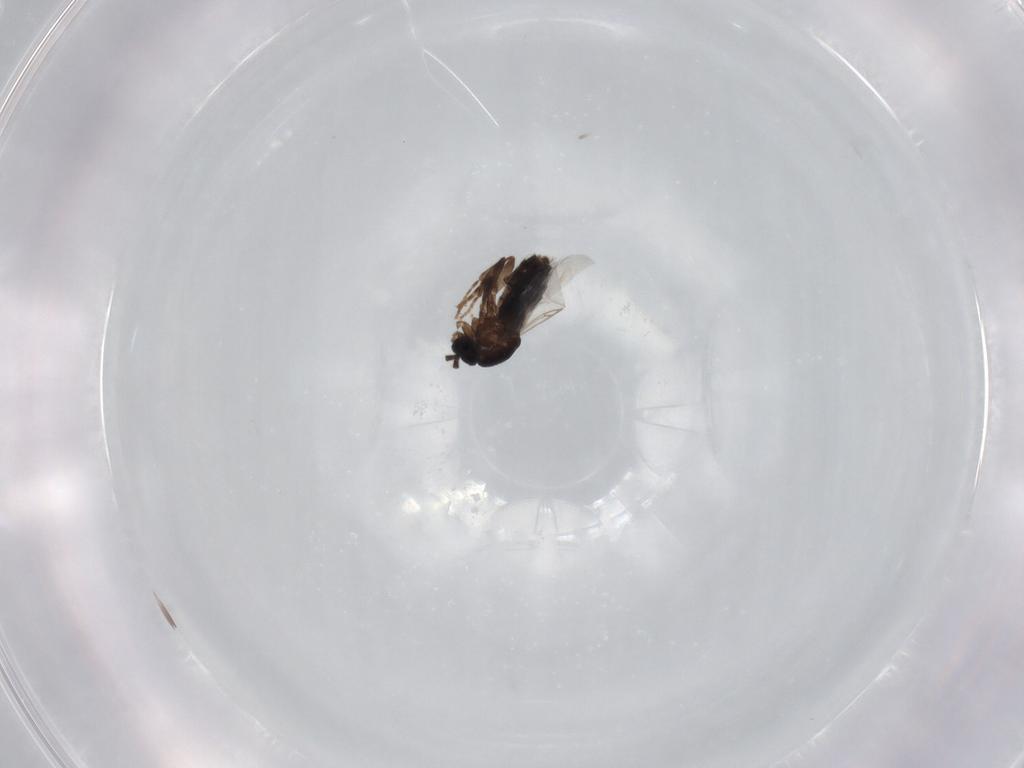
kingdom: Animalia
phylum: Arthropoda
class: Insecta
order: Diptera
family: Calliphoridae
